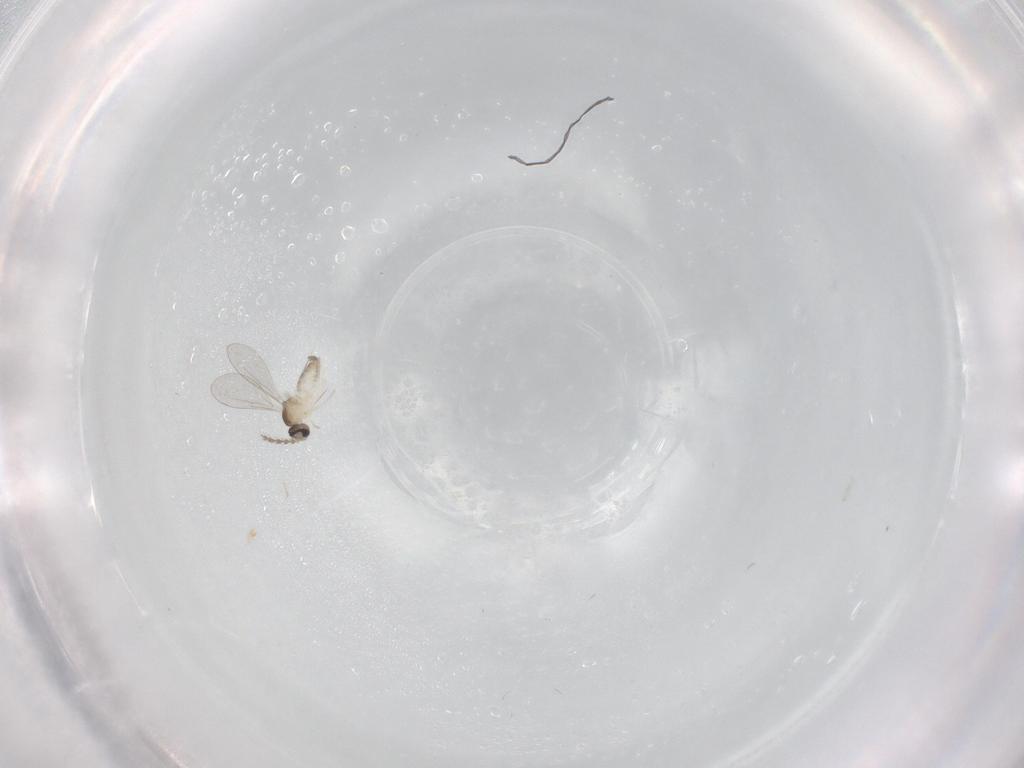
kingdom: Animalia
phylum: Arthropoda
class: Insecta
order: Diptera
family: Cecidomyiidae
